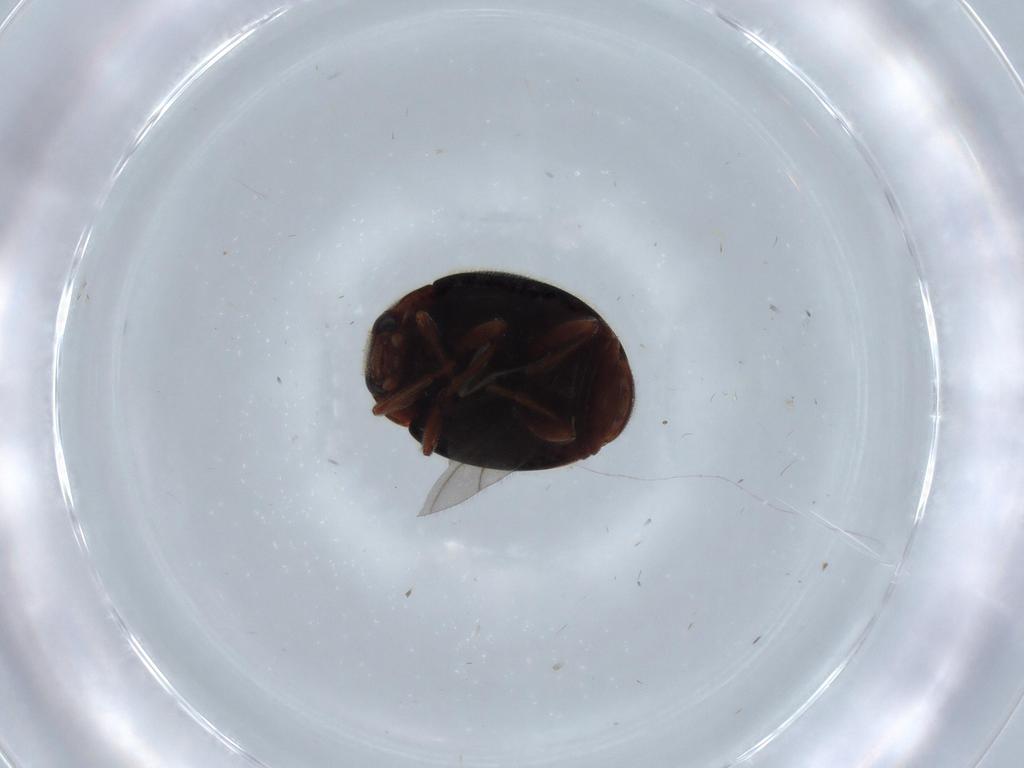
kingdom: Animalia
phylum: Arthropoda
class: Insecta
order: Coleoptera
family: Coccinellidae
